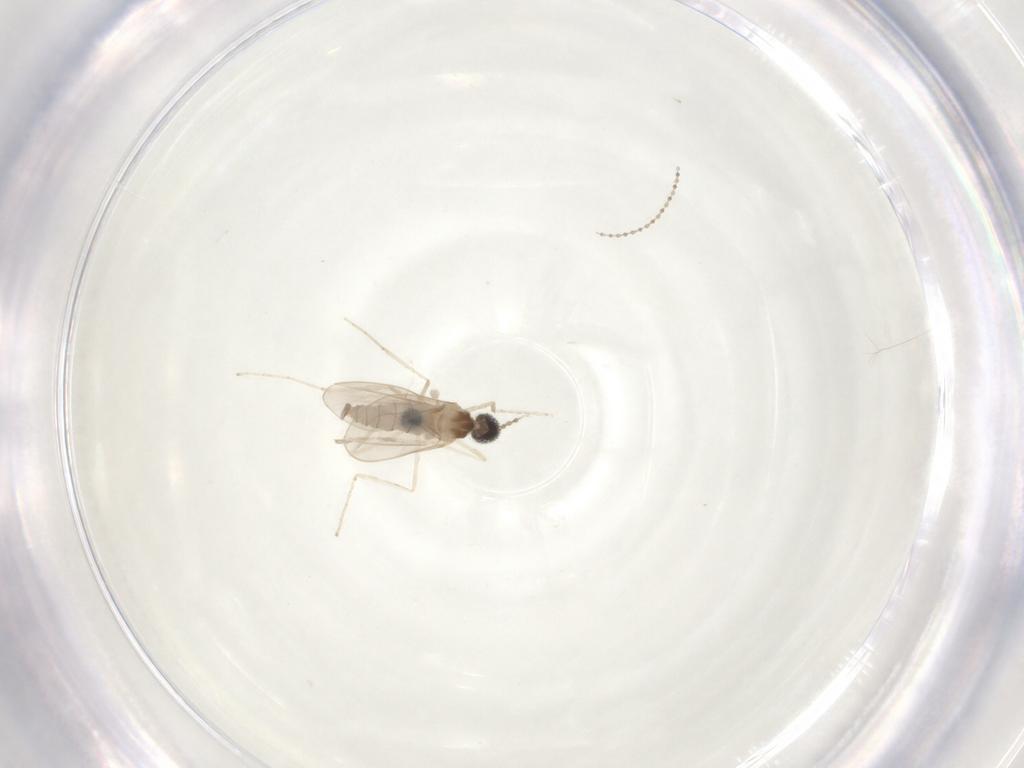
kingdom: Animalia
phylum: Arthropoda
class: Insecta
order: Diptera
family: Cecidomyiidae
